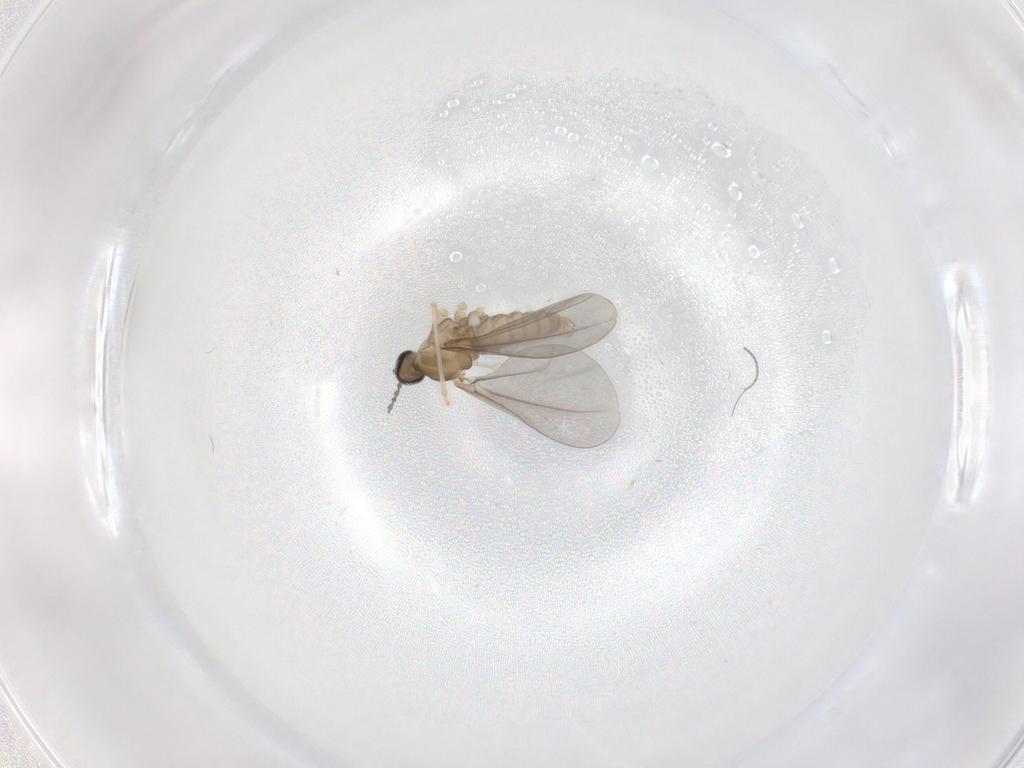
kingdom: Animalia
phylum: Arthropoda
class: Insecta
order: Diptera
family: Cecidomyiidae
